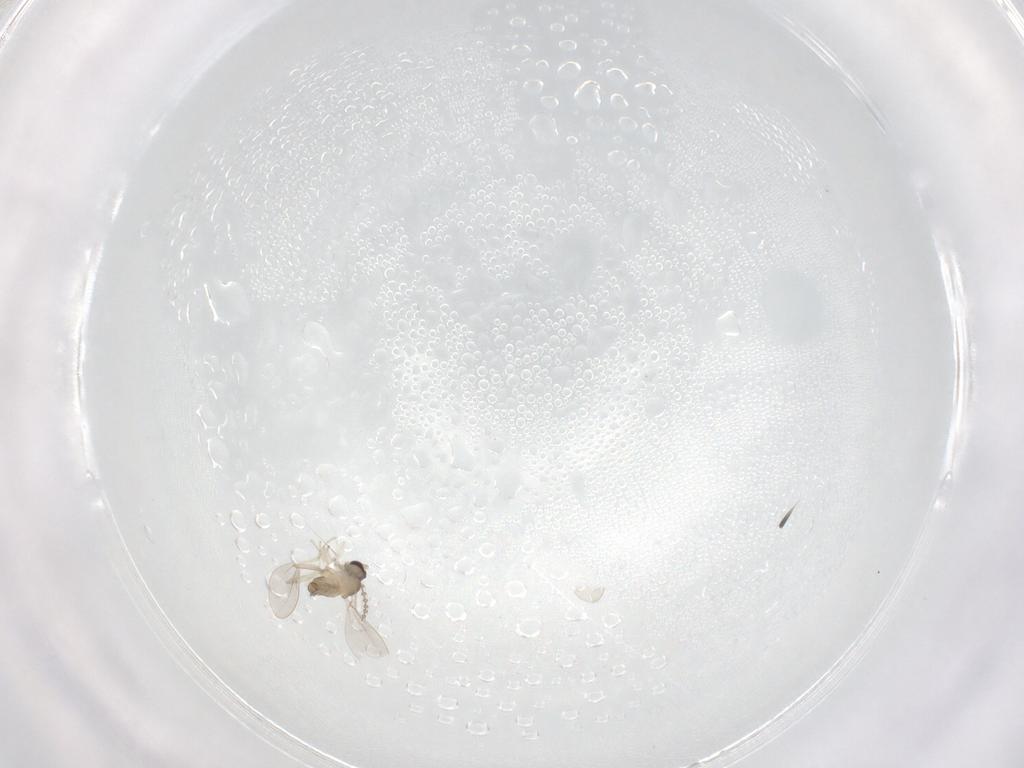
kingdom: Animalia
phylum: Arthropoda
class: Insecta
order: Diptera
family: Cecidomyiidae
